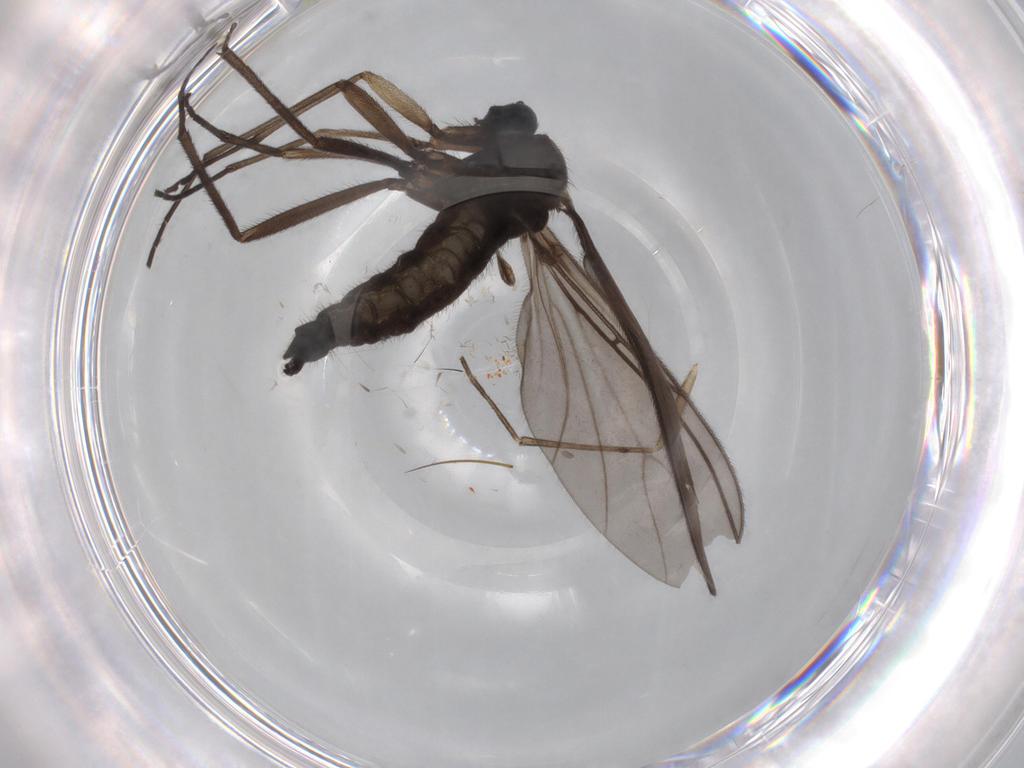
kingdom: Animalia
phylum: Arthropoda
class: Insecta
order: Diptera
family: Sciaridae
